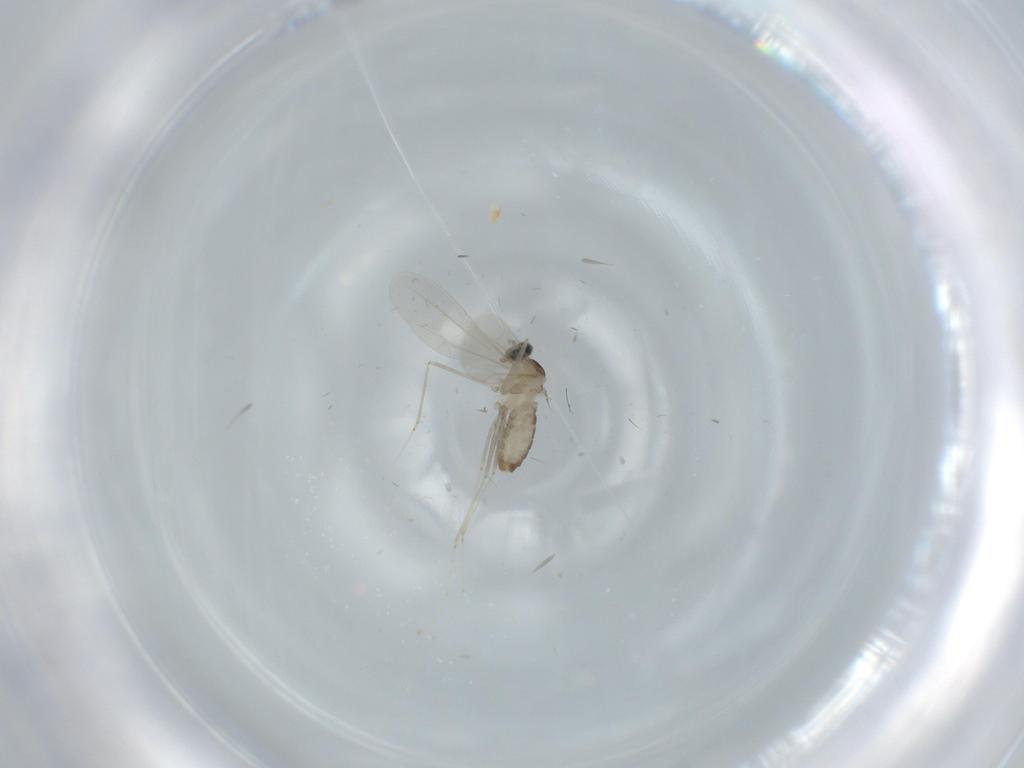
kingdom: Animalia
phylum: Arthropoda
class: Insecta
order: Diptera
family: Cecidomyiidae
